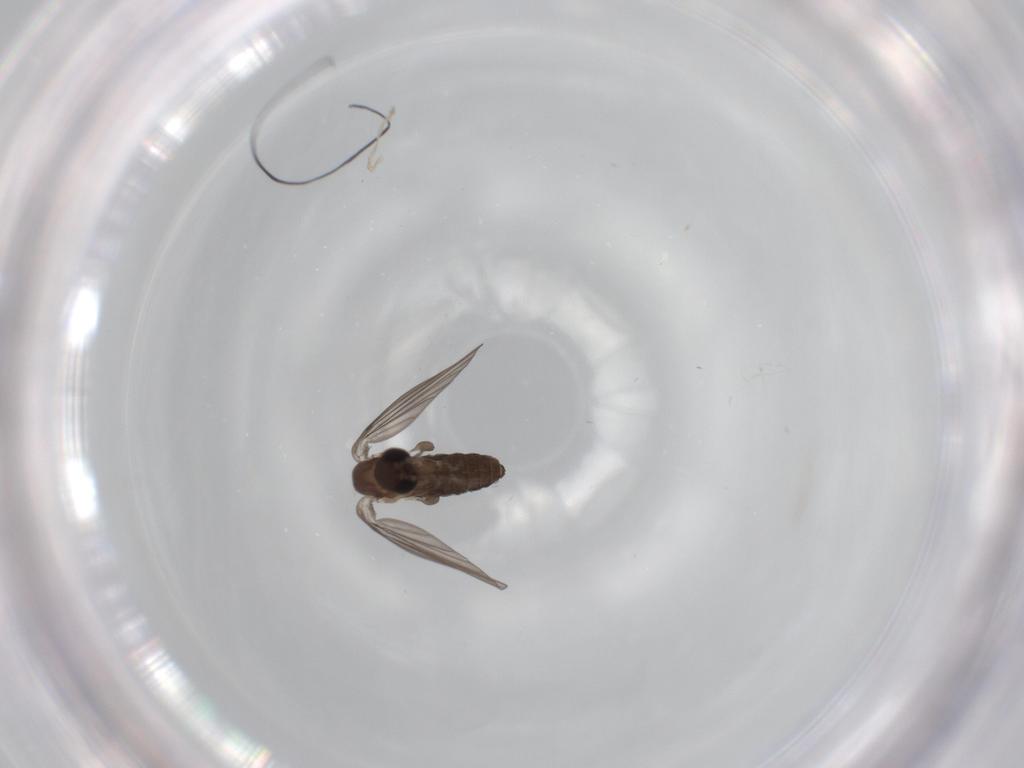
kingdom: Animalia
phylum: Arthropoda
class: Insecta
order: Diptera
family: Psychodidae
